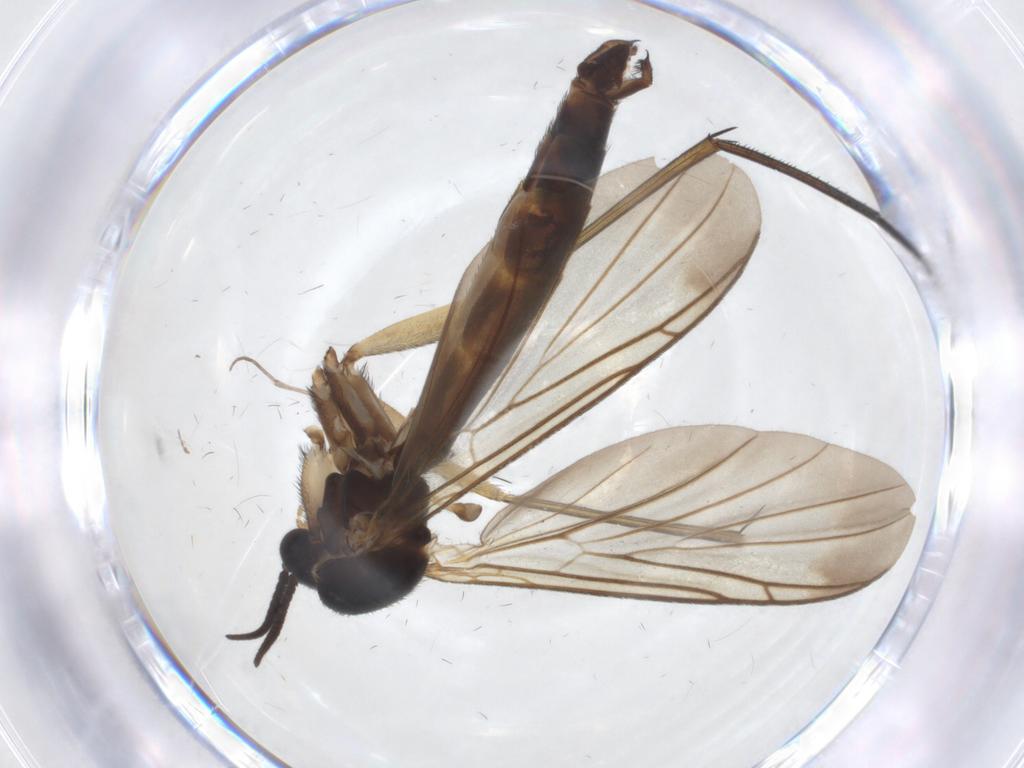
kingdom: Animalia
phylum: Arthropoda
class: Insecta
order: Diptera
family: Keroplatidae
